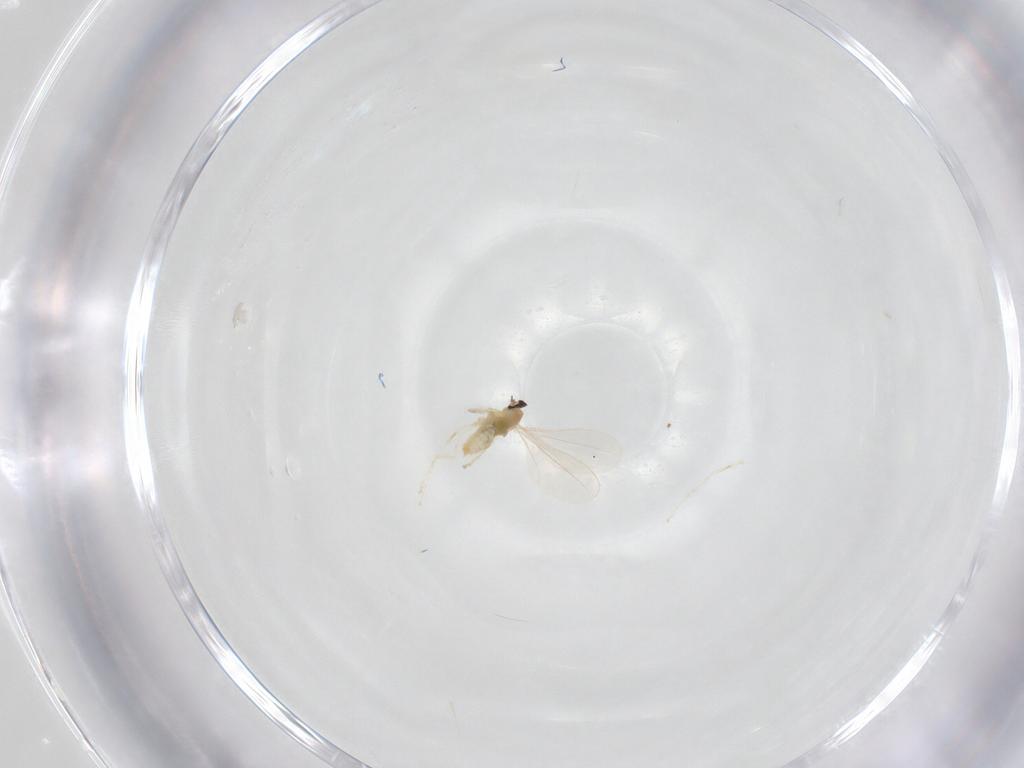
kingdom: Animalia
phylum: Arthropoda
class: Insecta
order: Diptera
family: Cecidomyiidae
